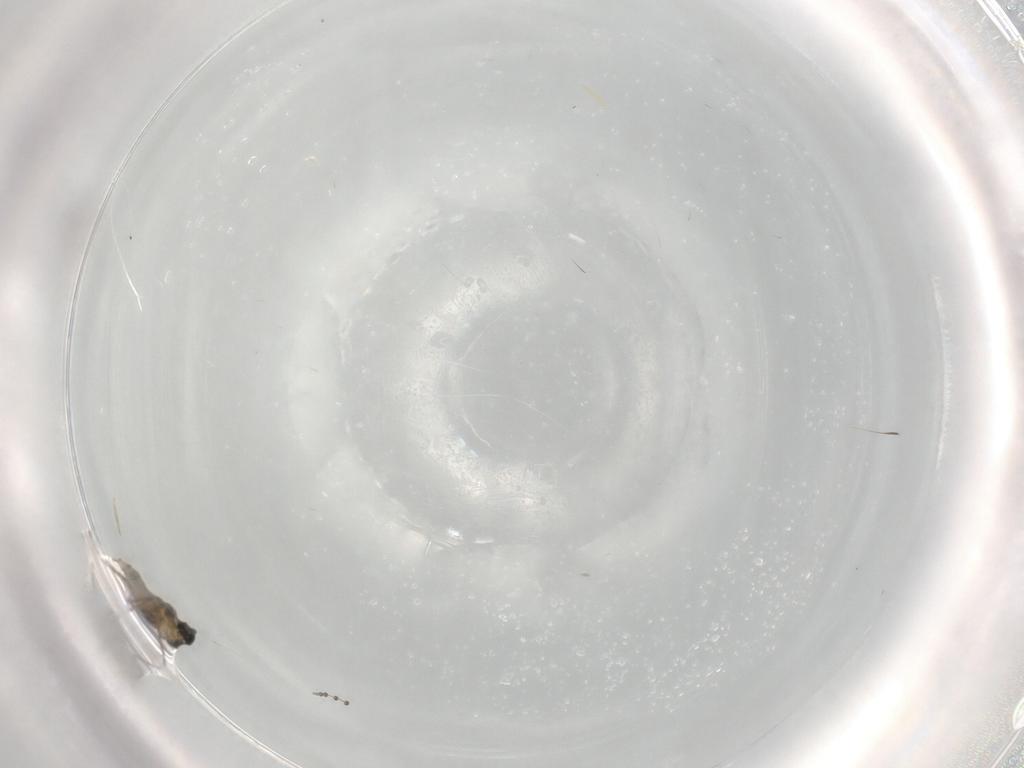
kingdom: Animalia
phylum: Arthropoda
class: Insecta
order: Diptera
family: Cecidomyiidae
